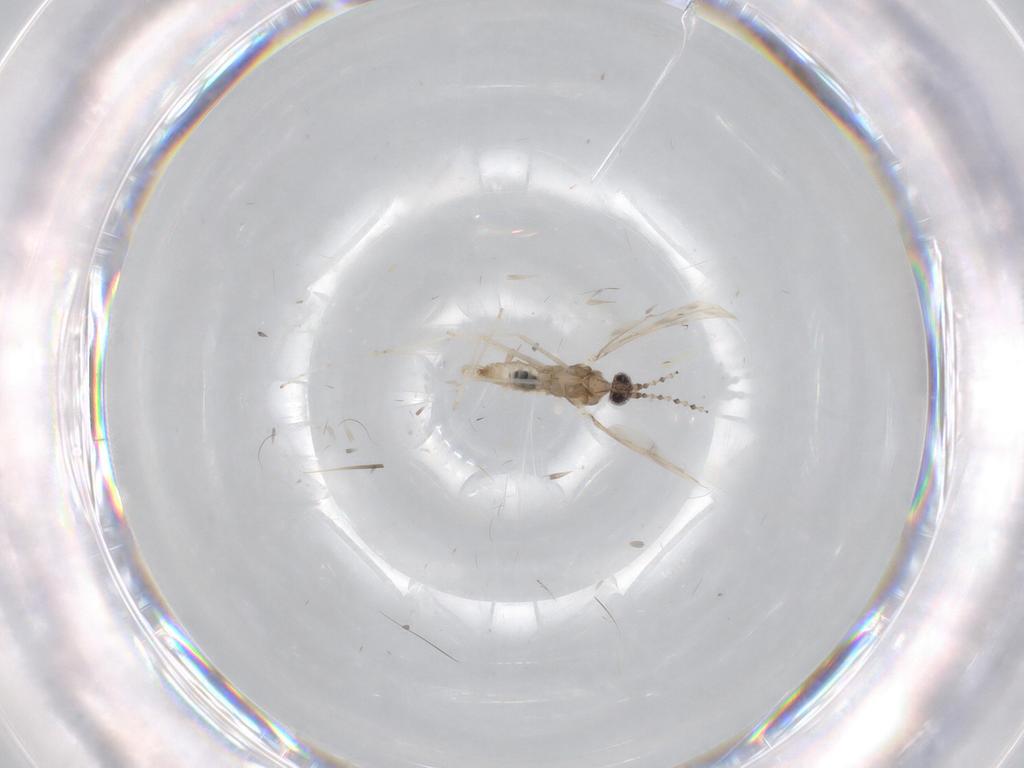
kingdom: Animalia
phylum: Arthropoda
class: Insecta
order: Diptera
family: Cecidomyiidae
